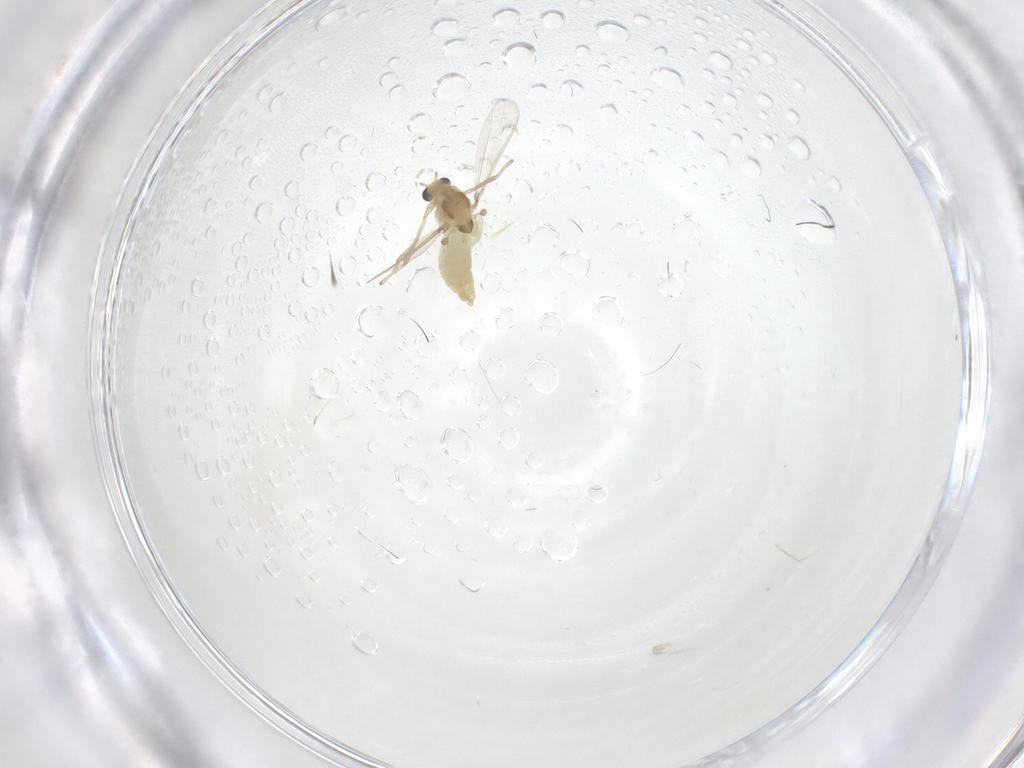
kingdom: Animalia
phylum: Arthropoda
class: Insecta
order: Diptera
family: Chironomidae
